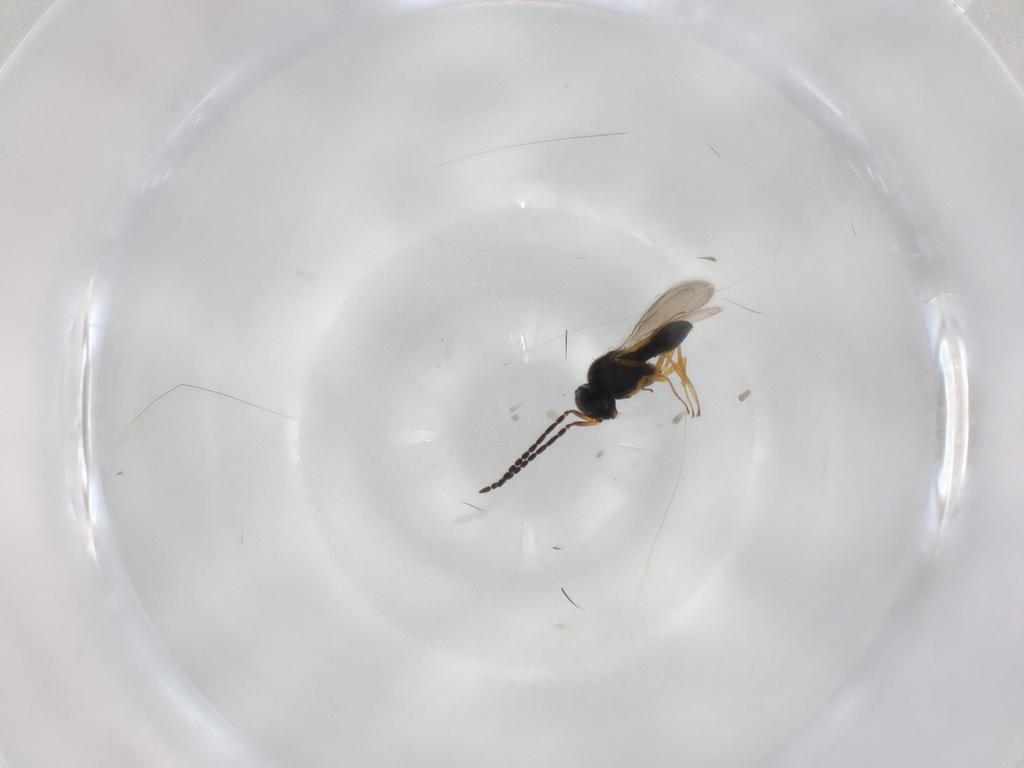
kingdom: Animalia
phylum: Arthropoda
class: Insecta
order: Hymenoptera
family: Scelionidae
